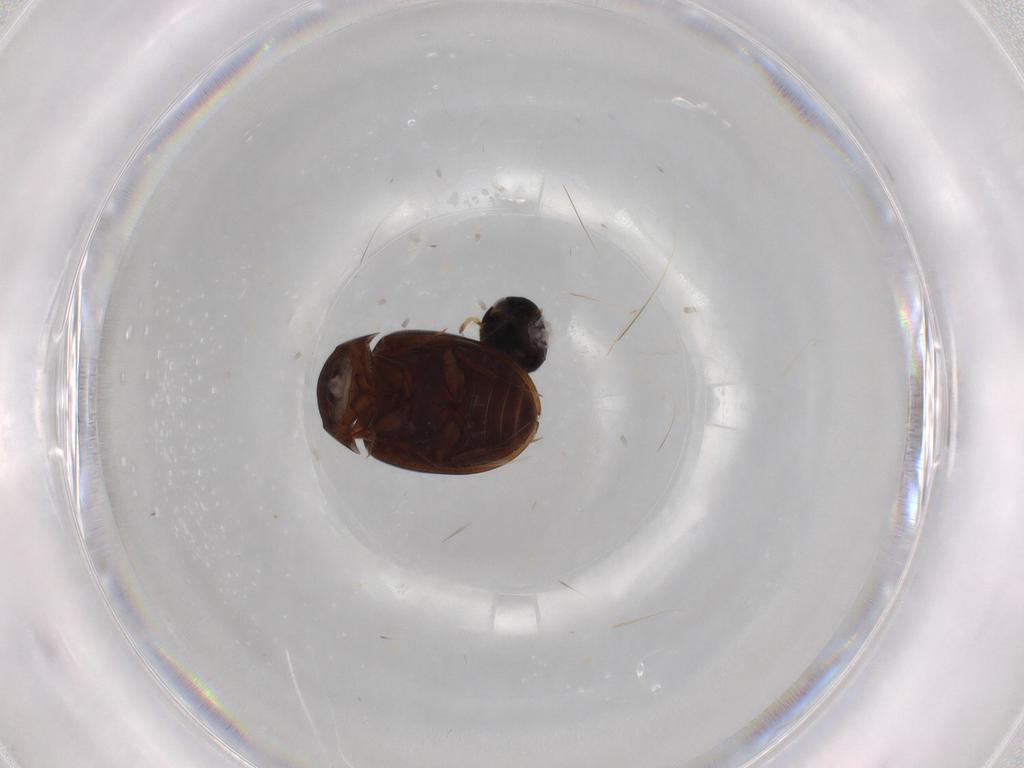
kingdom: Animalia
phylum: Arthropoda
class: Insecta
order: Coleoptera
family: Hydrophilidae
